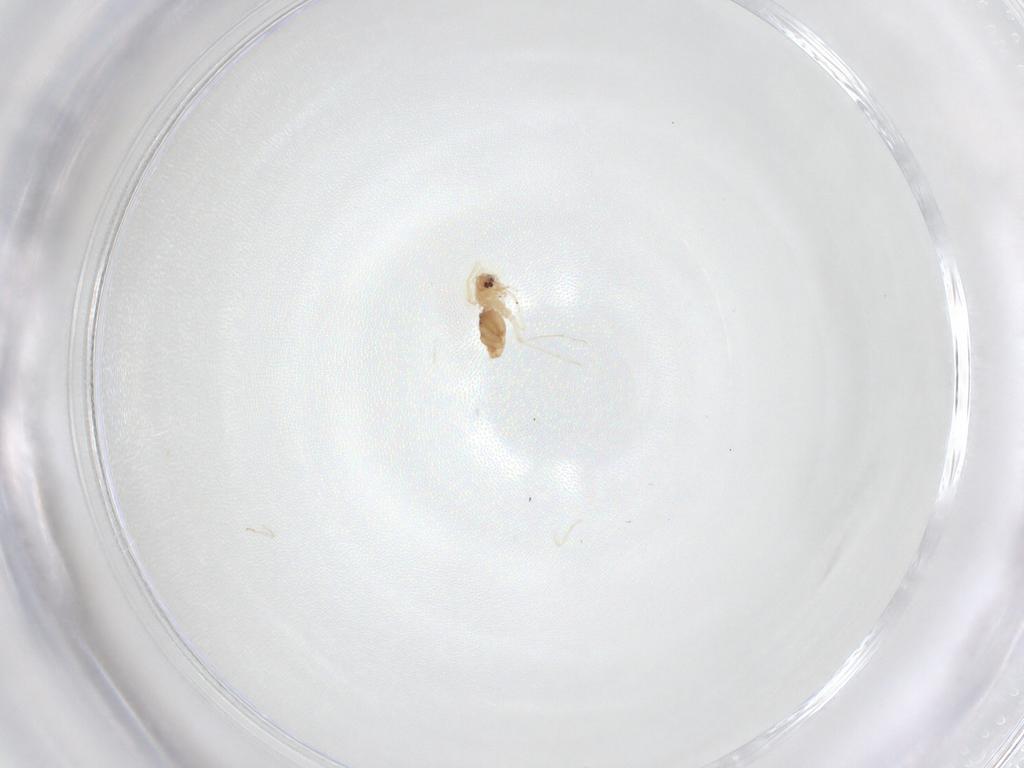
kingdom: Animalia
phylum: Arthropoda
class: Insecta
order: Hemiptera
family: Aleyrodidae
